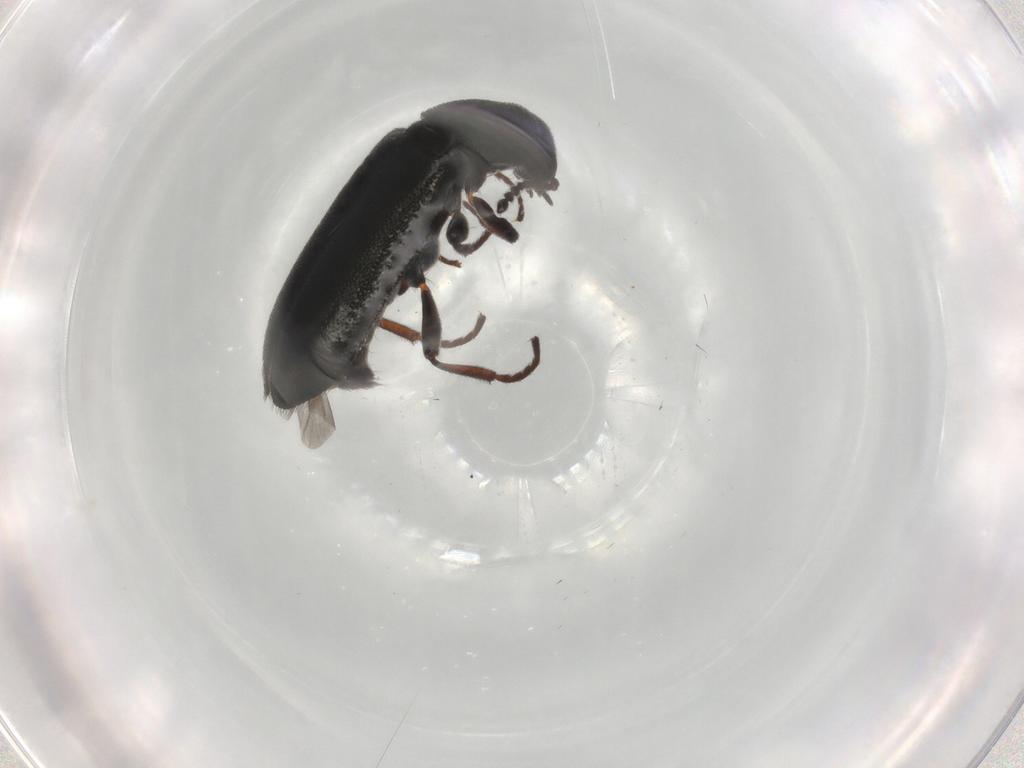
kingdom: Animalia
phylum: Arthropoda
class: Insecta
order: Coleoptera
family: Melyridae
